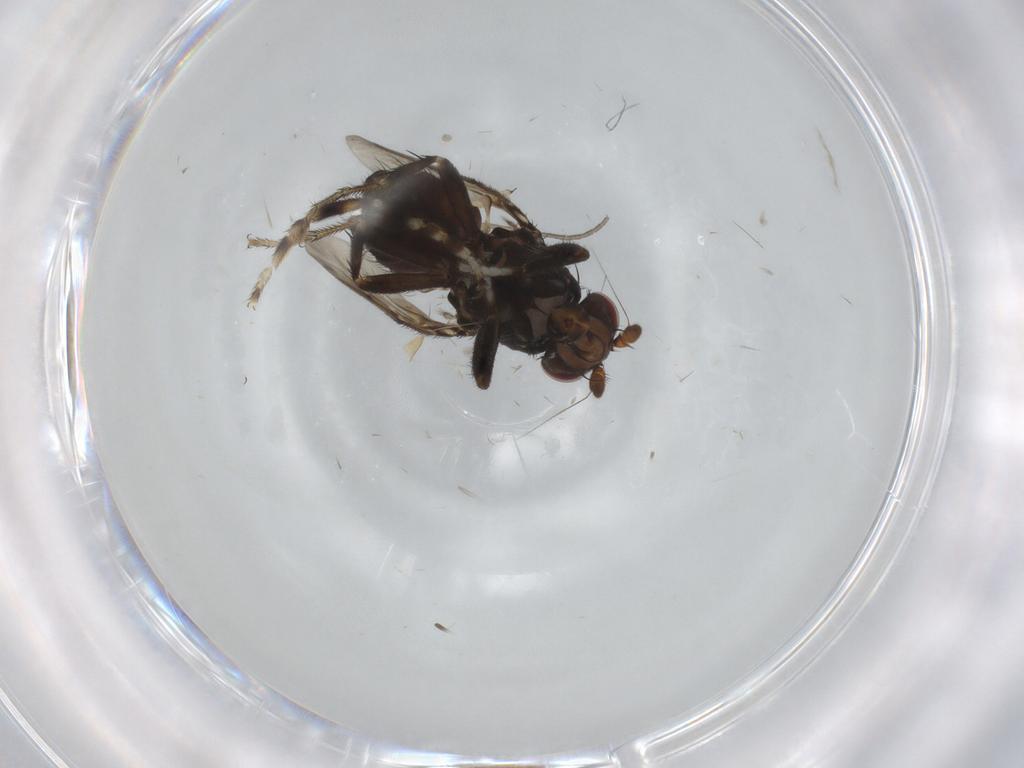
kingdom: Animalia
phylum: Arthropoda
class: Insecta
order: Diptera
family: Sphaeroceridae
